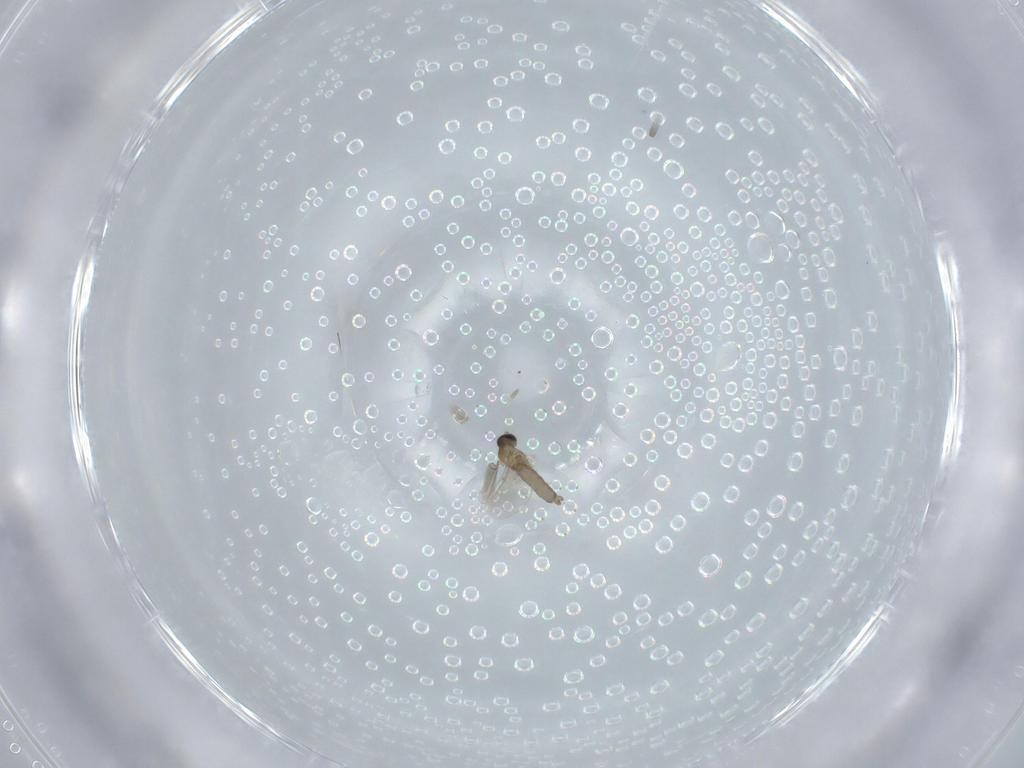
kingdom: Animalia
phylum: Arthropoda
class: Insecta
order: Diptera
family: Cecidomyiidae
